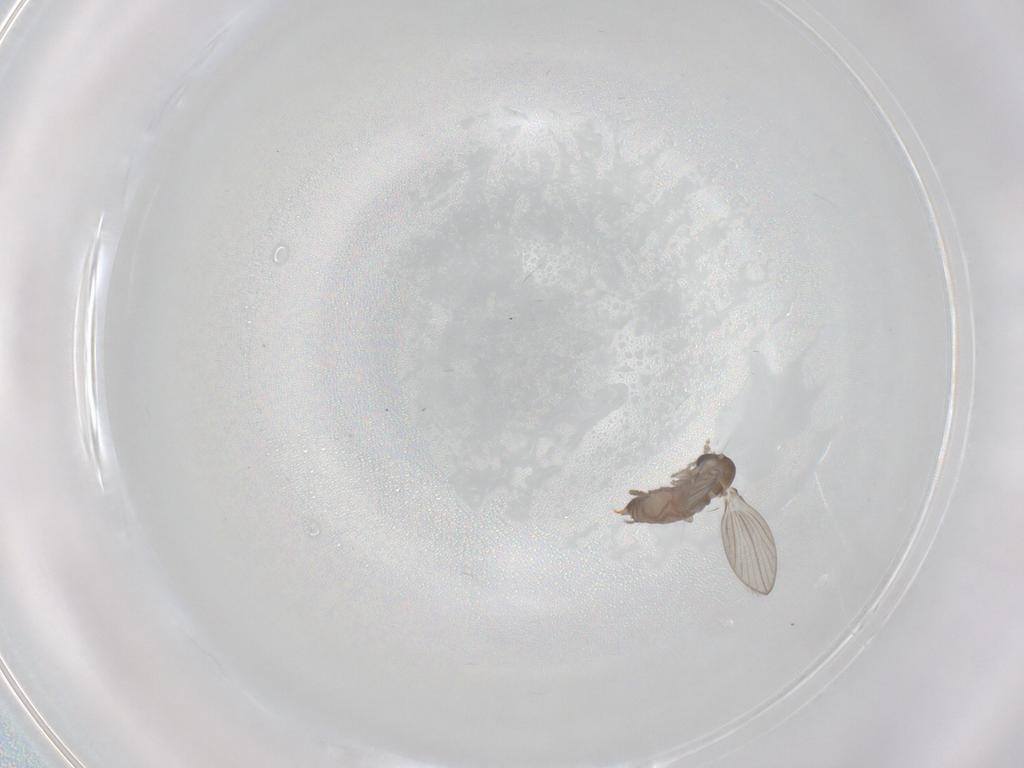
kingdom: Animalia
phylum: Arthropoda
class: Insecta
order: Diptera
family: Psychodidae
